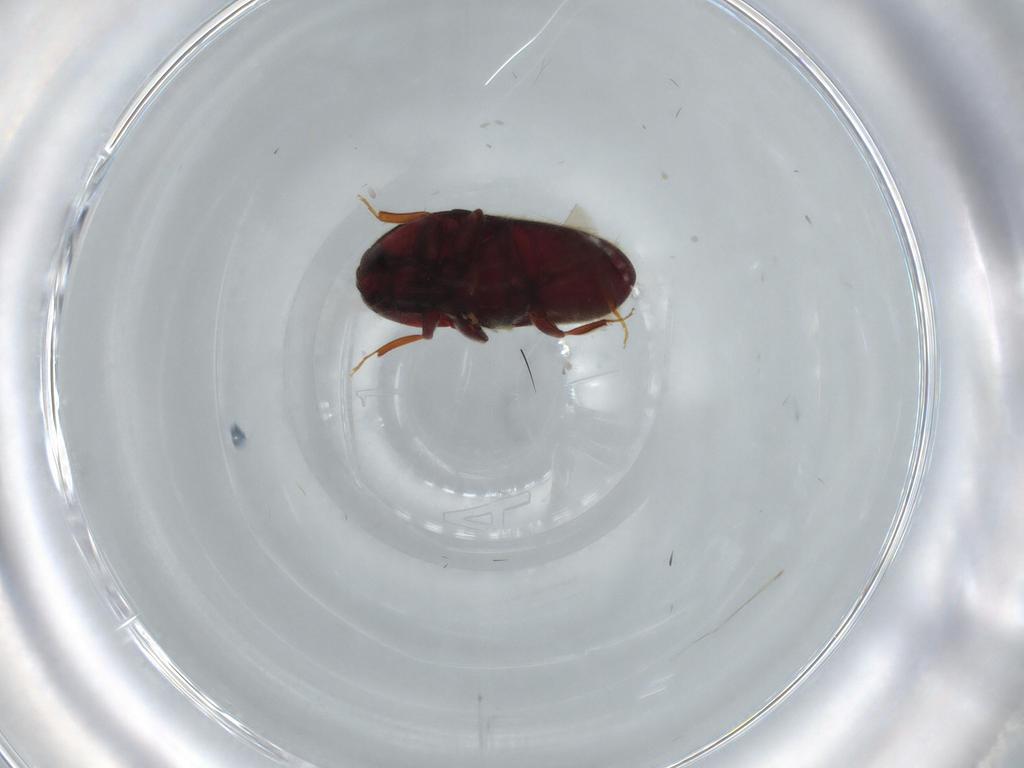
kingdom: Animalia
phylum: Arthropoda
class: Insecta
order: Coleoptera
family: Throscidae
